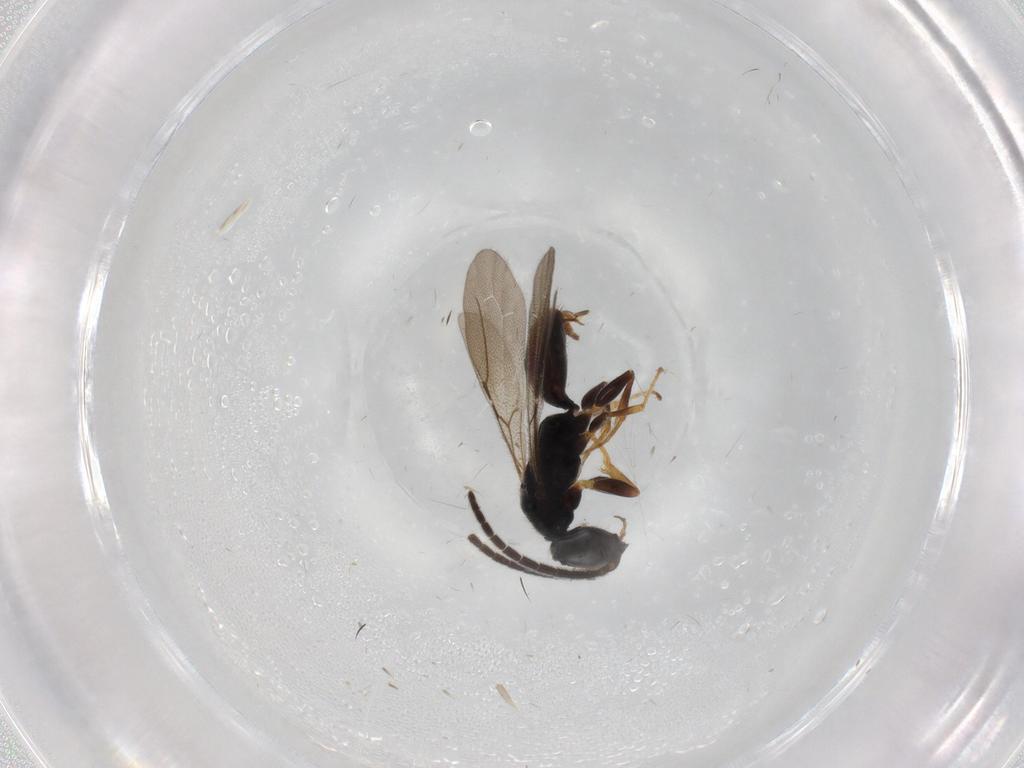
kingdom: Animalia
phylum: Arthropoda
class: Insecta
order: Hymenoptera
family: Bethylidae
